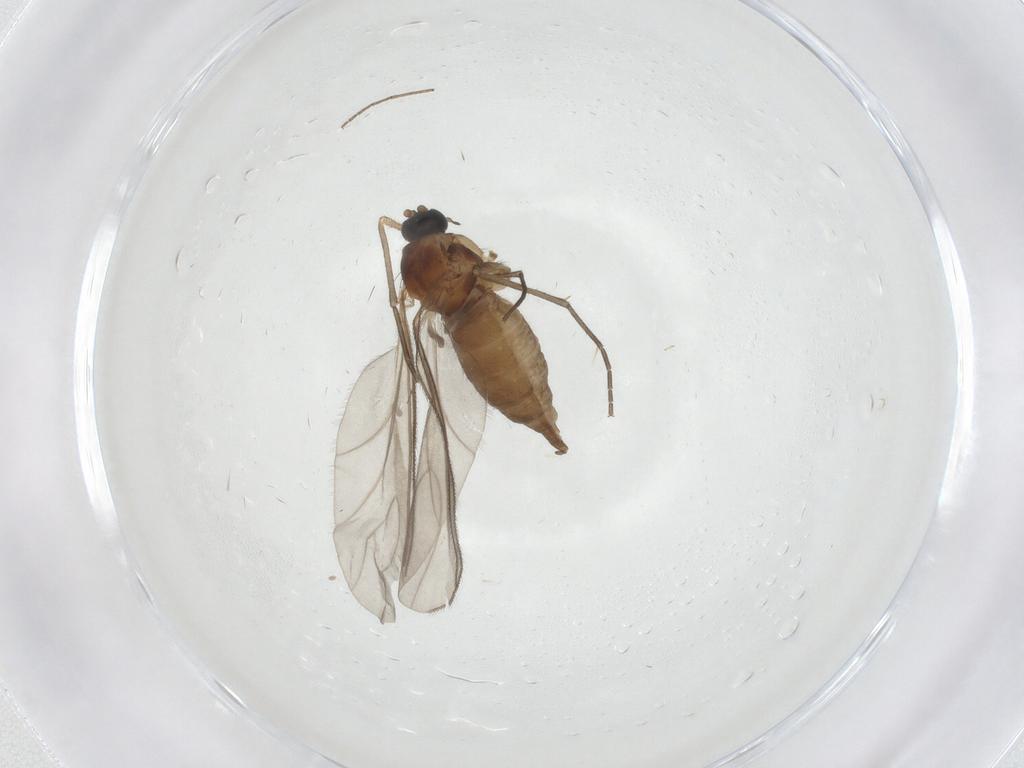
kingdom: Animalia
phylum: Arthropoda
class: Insecta
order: Diptera
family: Sciaridae
